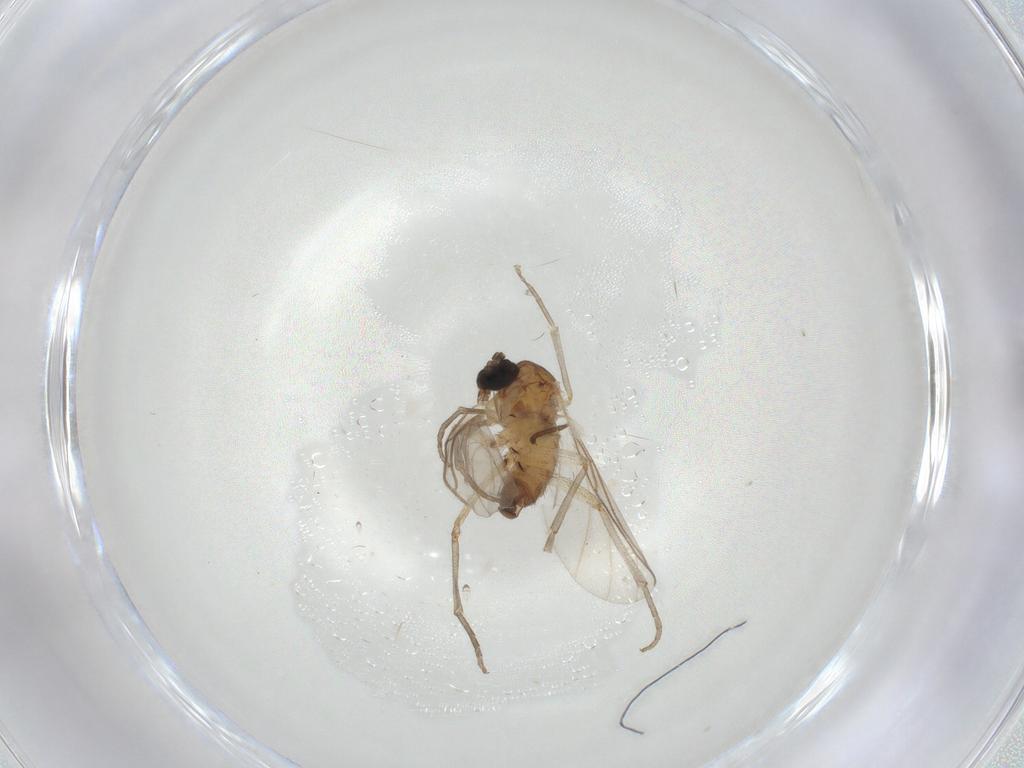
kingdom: Animalia
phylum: Arthropoda
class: Insecta
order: Diptera
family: Sciaridae
